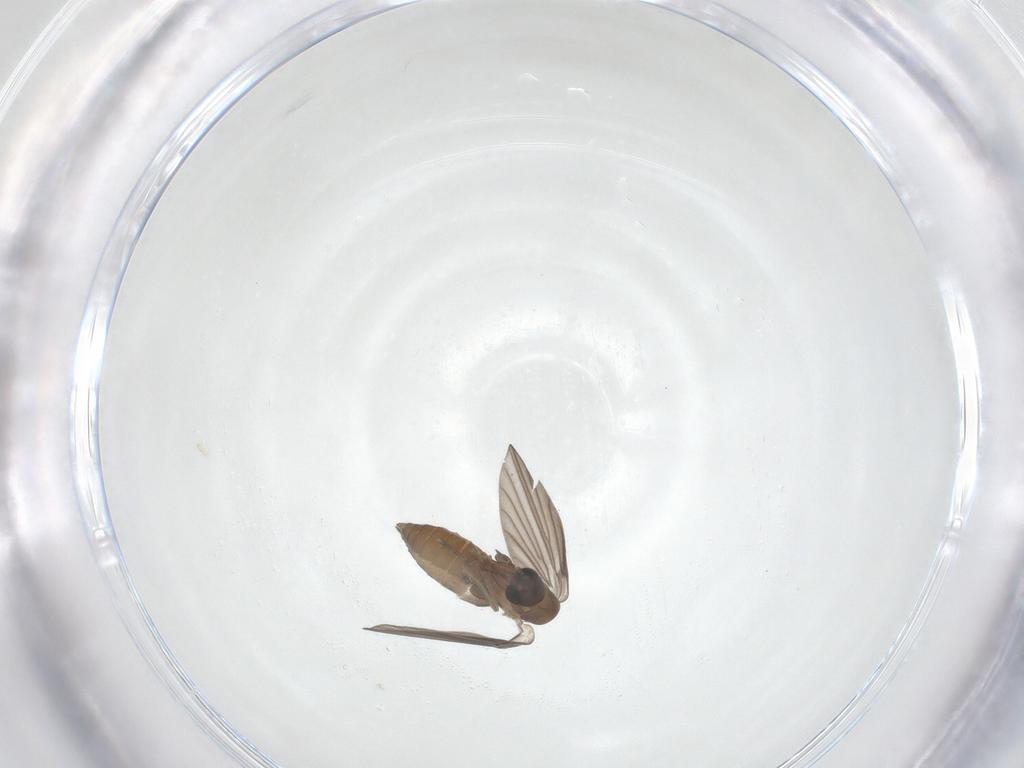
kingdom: Animalia
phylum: Arthropoda
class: Insecta
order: Diptera
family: Psychodidae
